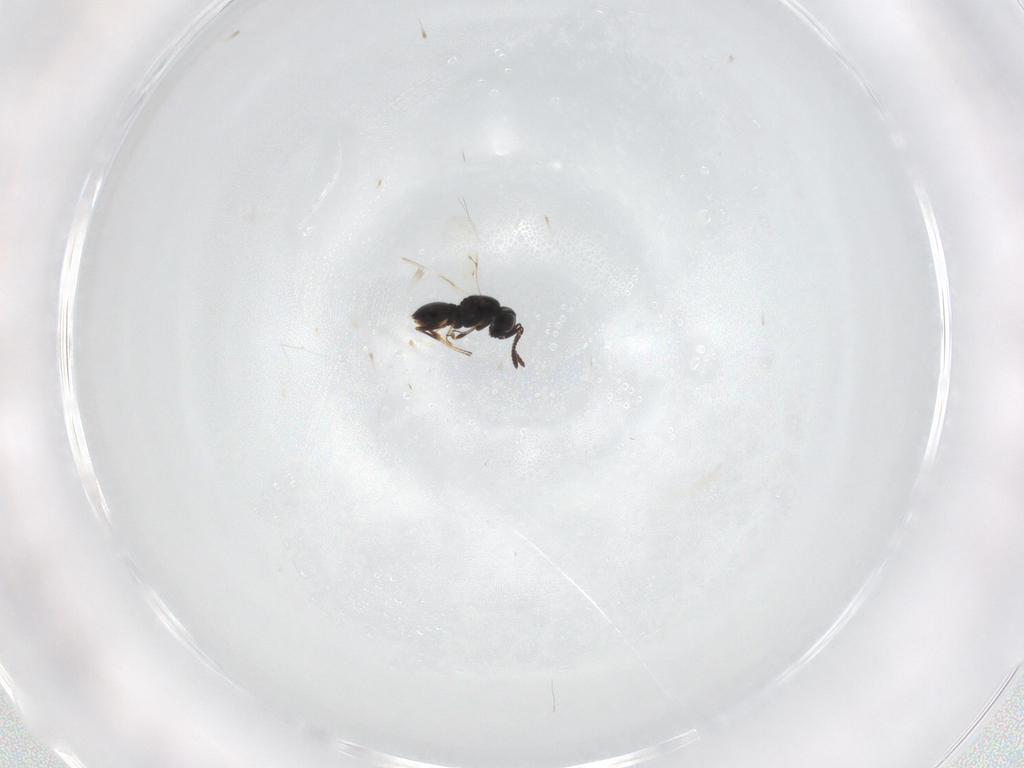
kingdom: Animalia
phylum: Arthropoda
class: Insecta
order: Hymenoptera
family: Scelionidae
